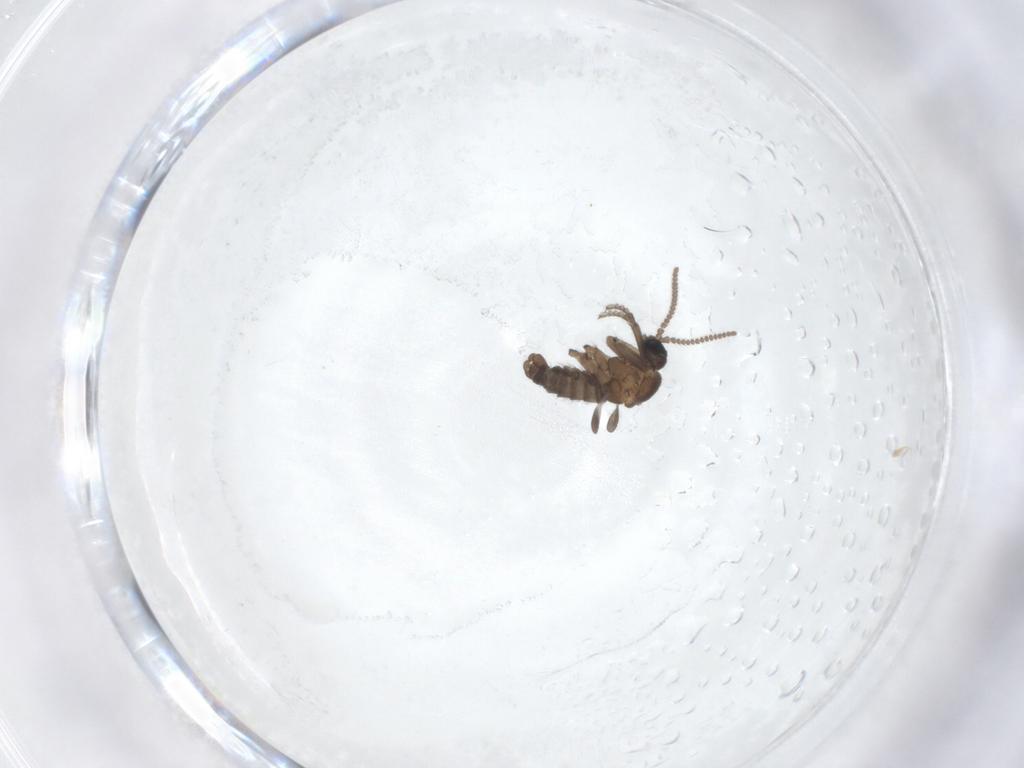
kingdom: Animalia
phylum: Arthropoda
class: Insecta
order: Diptera
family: Sciaridae
